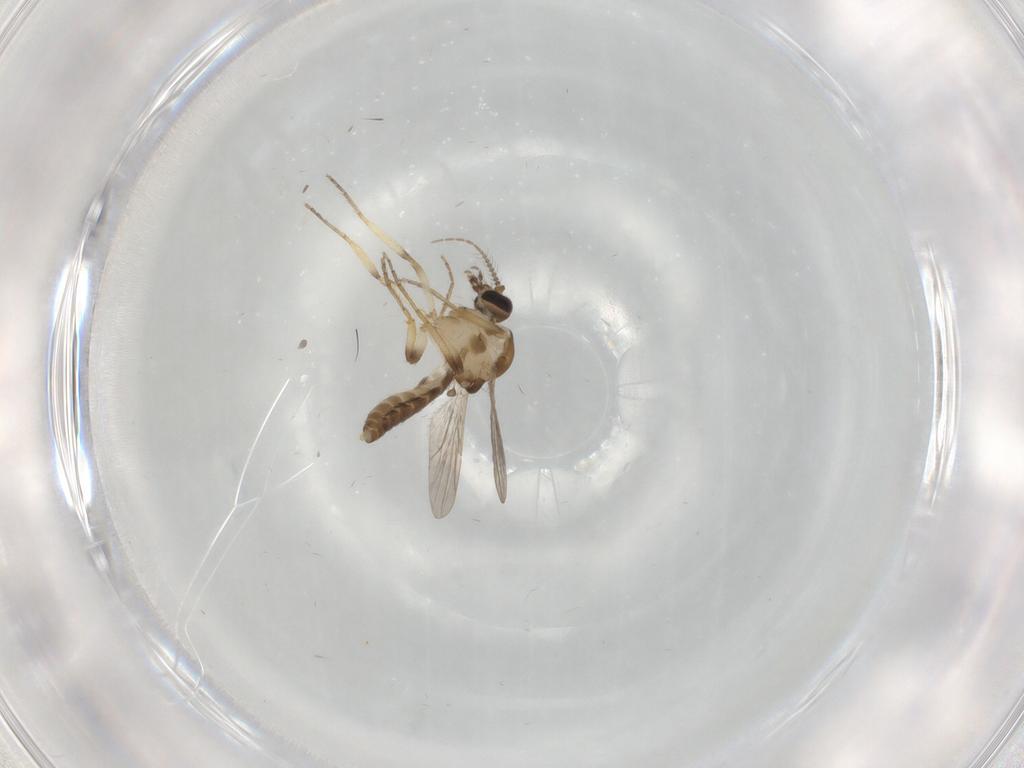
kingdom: Animalia
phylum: Arthropoda
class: Insecta
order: Diptera
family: Ceratopogonidae
